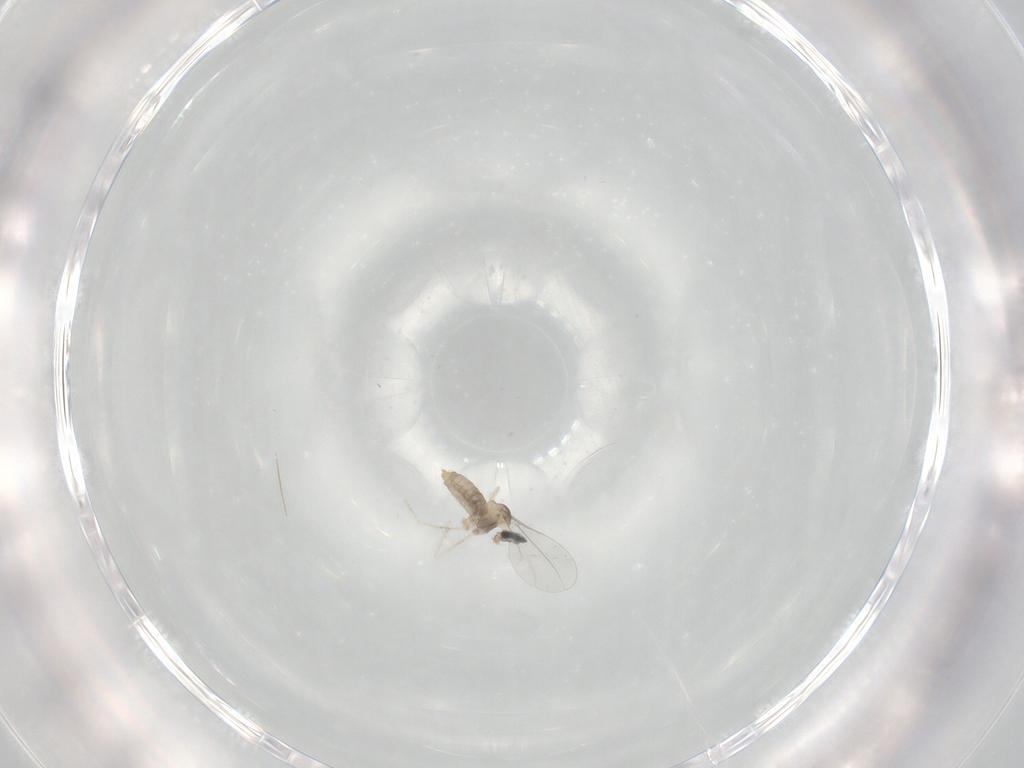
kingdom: Animalia
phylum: Arthropoda
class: Insecta
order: Diptera
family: Cecidomyiidae
